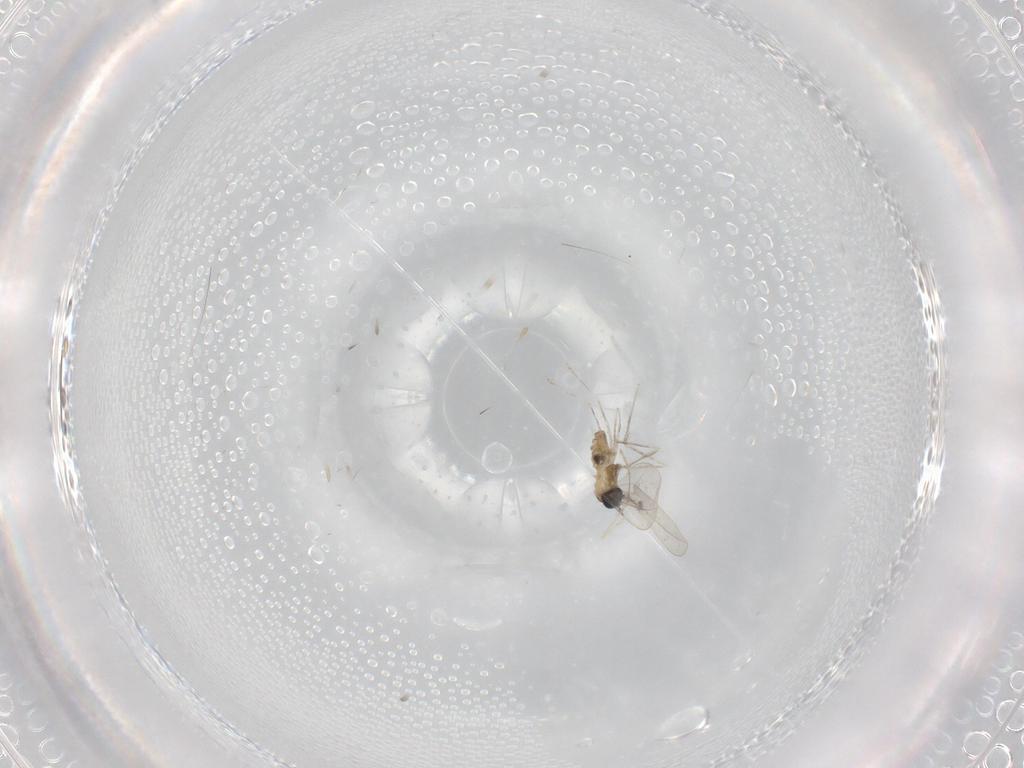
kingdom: Animalia
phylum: Arthropoda
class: Insecta
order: Diptera
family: Cecidomyiidae
